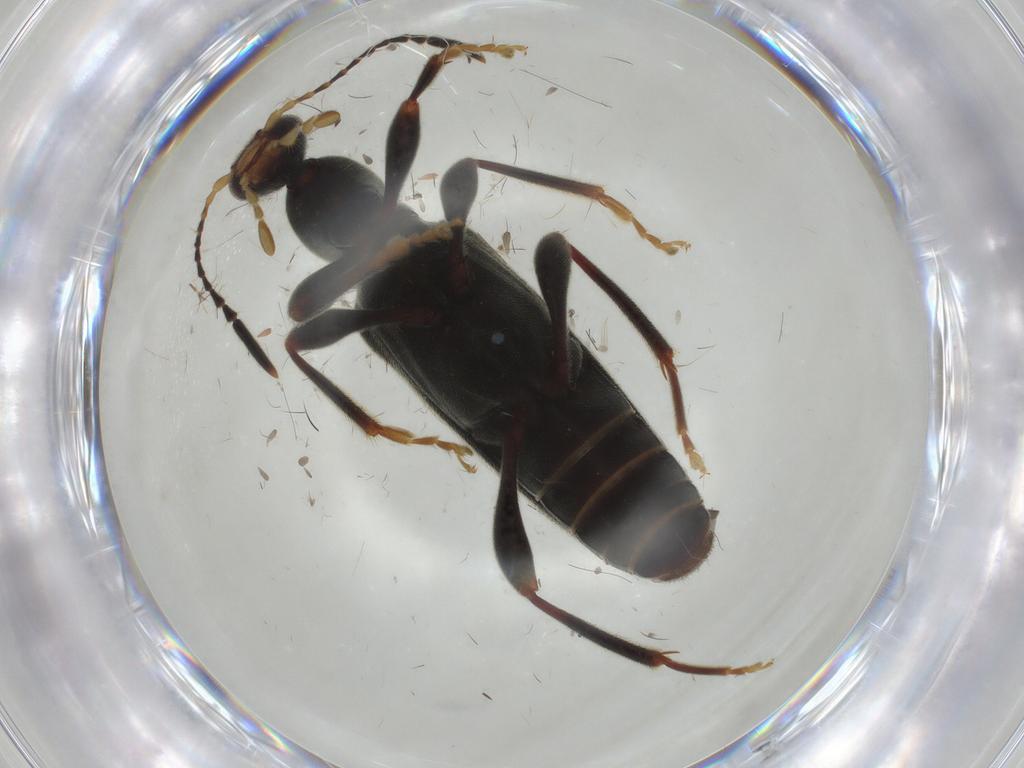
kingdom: Animalia
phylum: Arthropoda
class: Insecta
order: Coleoptera
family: Anthicidae
